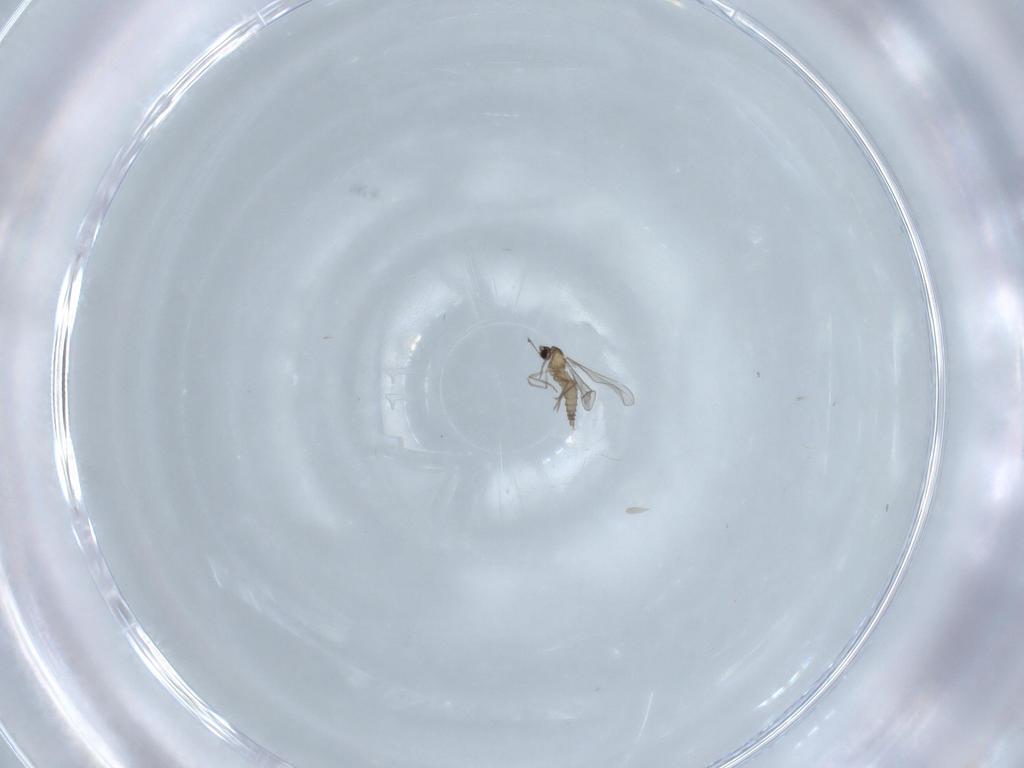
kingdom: Animalia
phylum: Arthropoda
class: Insecta
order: Diptera
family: Cecidomyiidae
